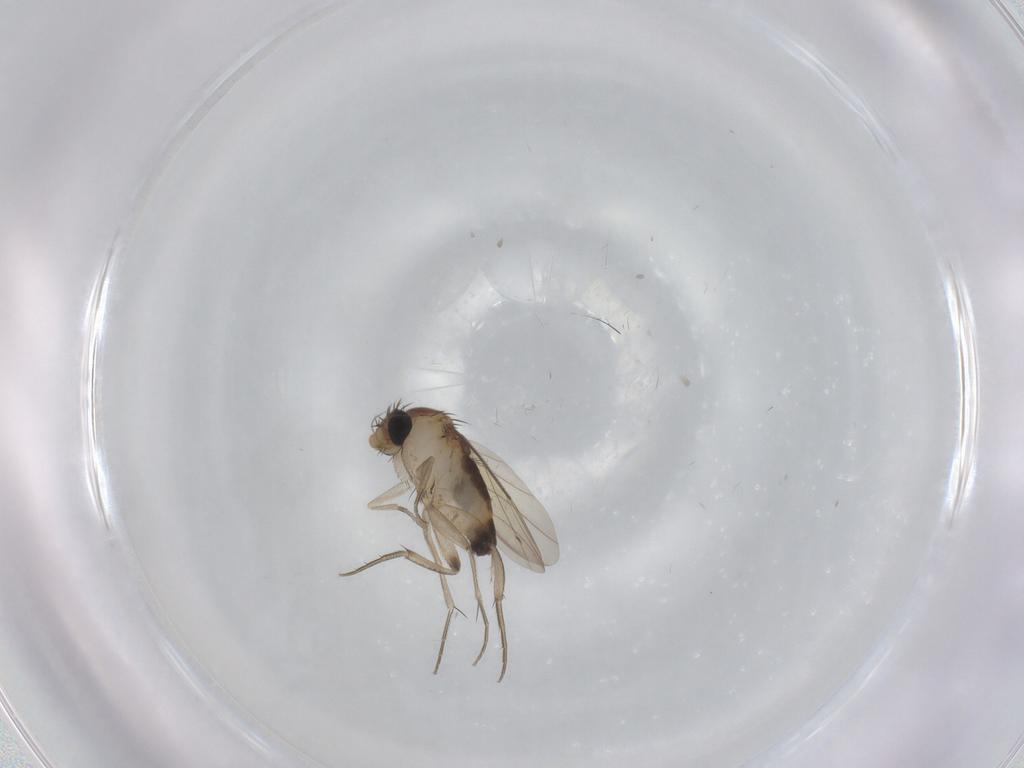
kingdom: Animalia
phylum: Arthropoda
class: Insecta
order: Diptera
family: Phoridae
